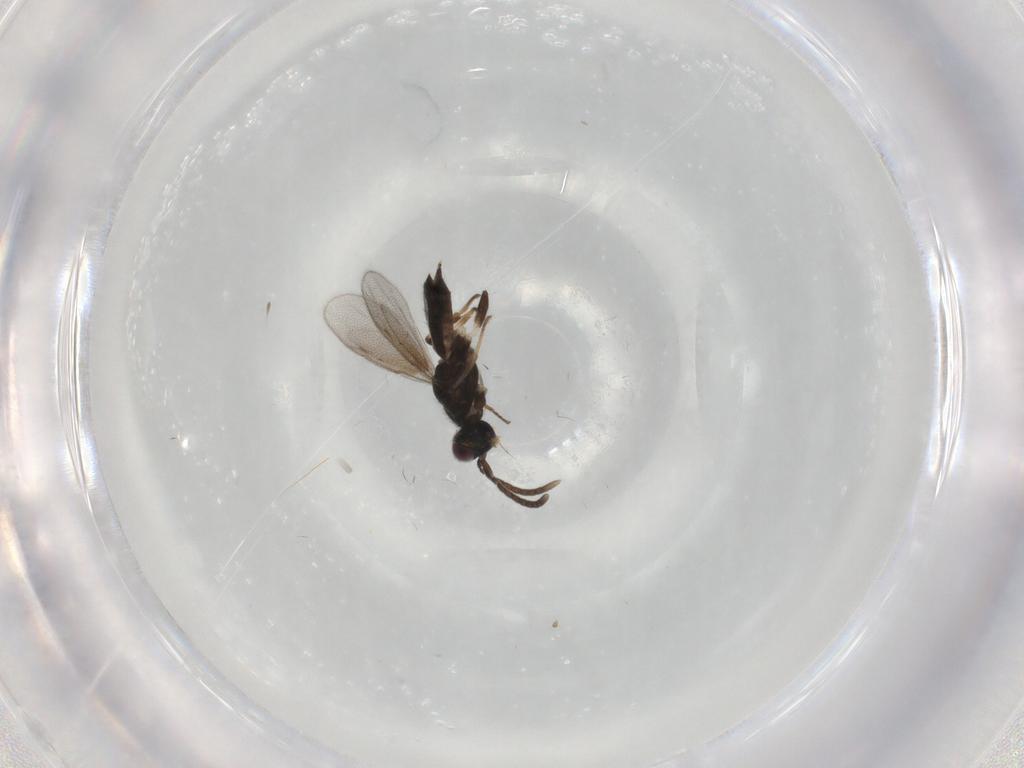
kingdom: Animalia
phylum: Arthropoda
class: Insecta
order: Hymenoptera
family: Eupelmidae
